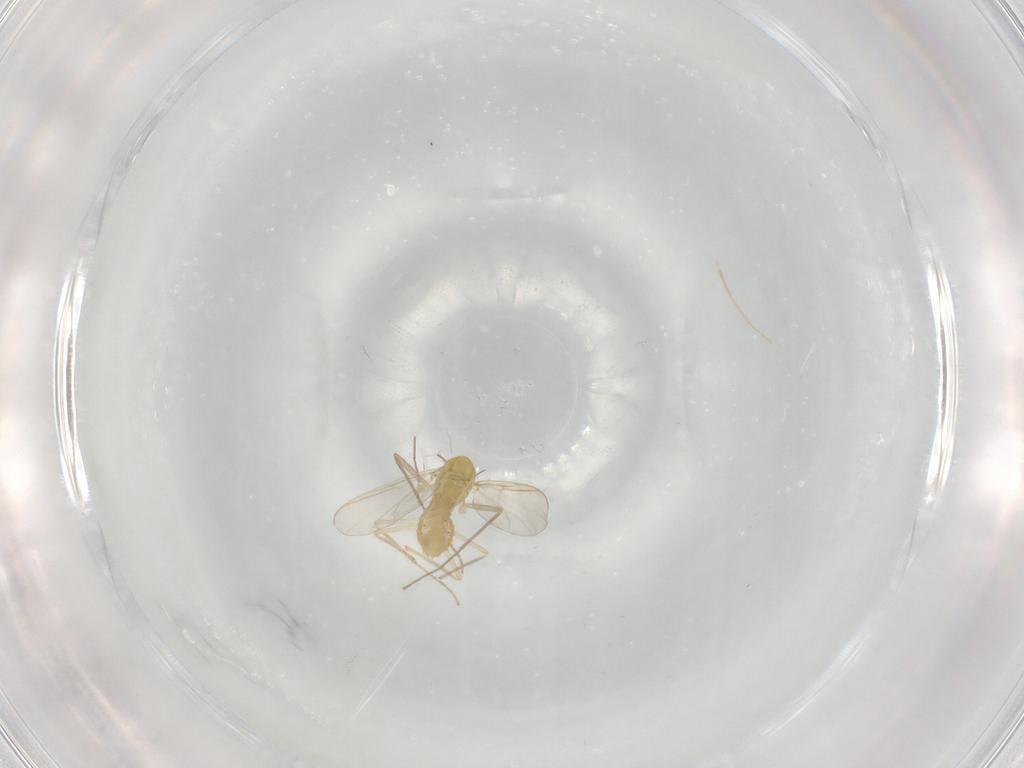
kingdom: Animalia
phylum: Arthropoda
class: Insecta
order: Diptera
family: Chironomidae
